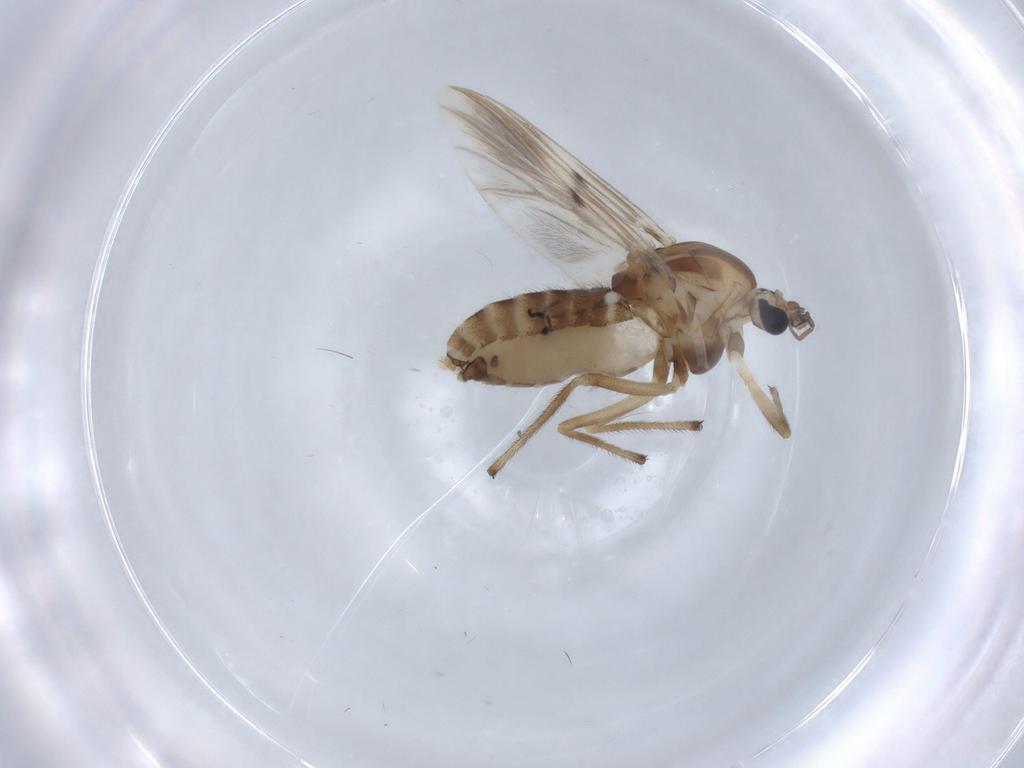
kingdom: Animalia
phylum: Arthropoda
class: Insecta
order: Diptera
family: Chironomidae
